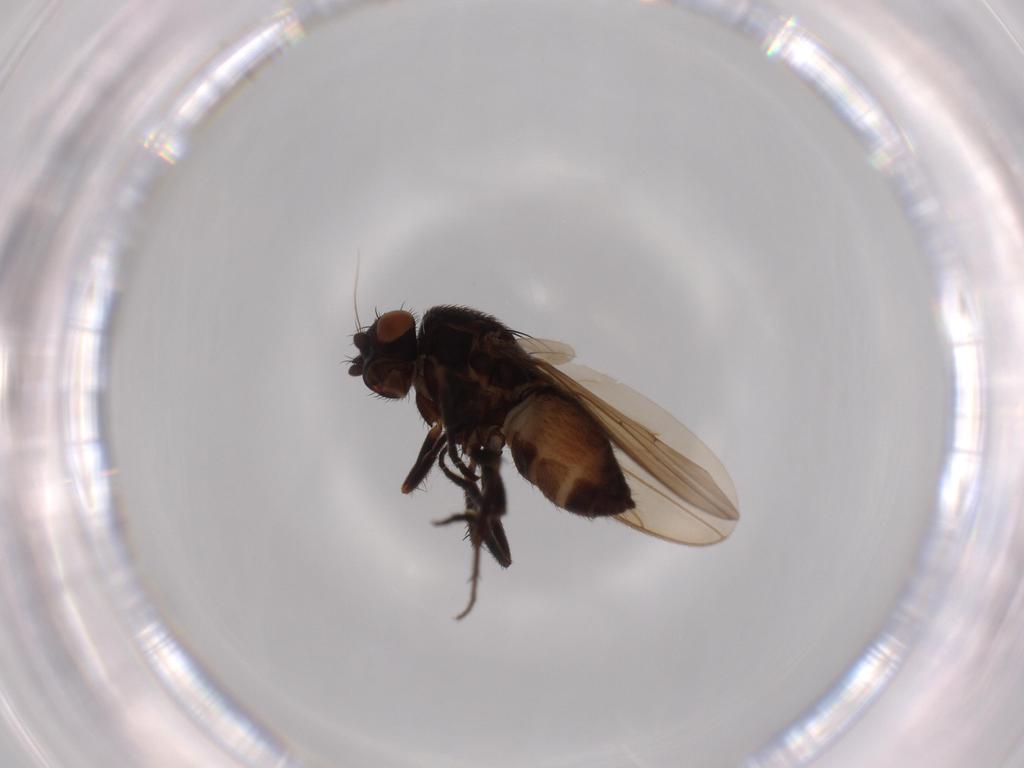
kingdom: Animalia
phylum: Arthropoda
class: Insecta
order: Diptera
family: Sphaeroceridae
